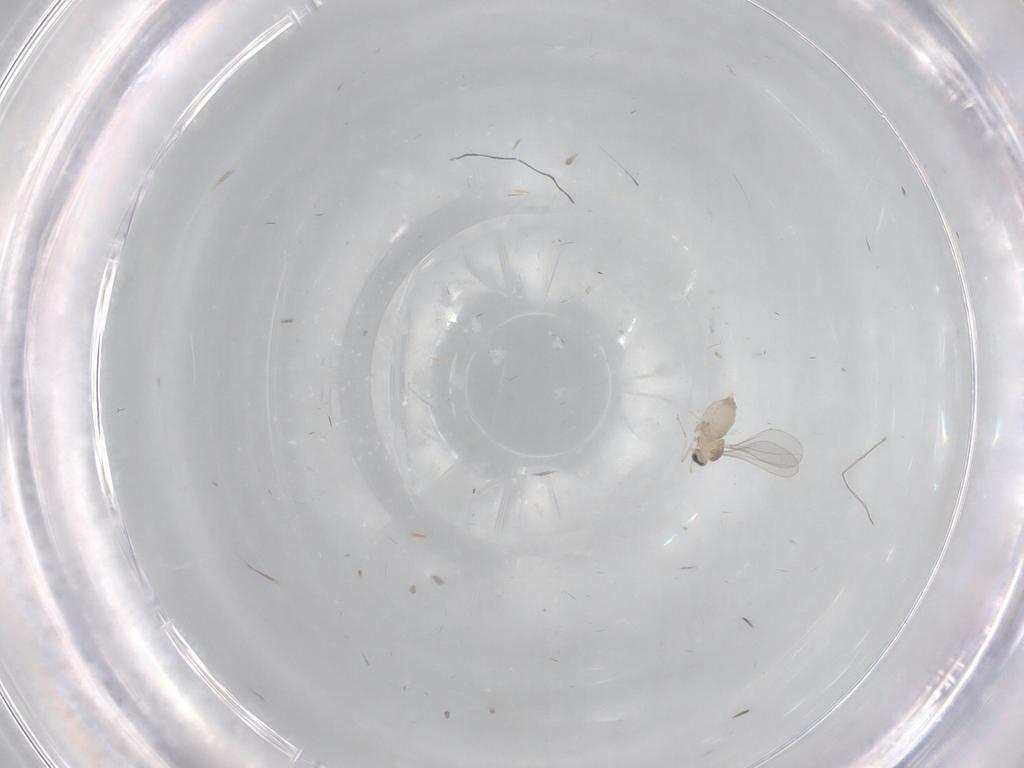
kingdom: Animalia
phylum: Arthropoda
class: Insecta
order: Diptera
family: Cecidomyiidae
